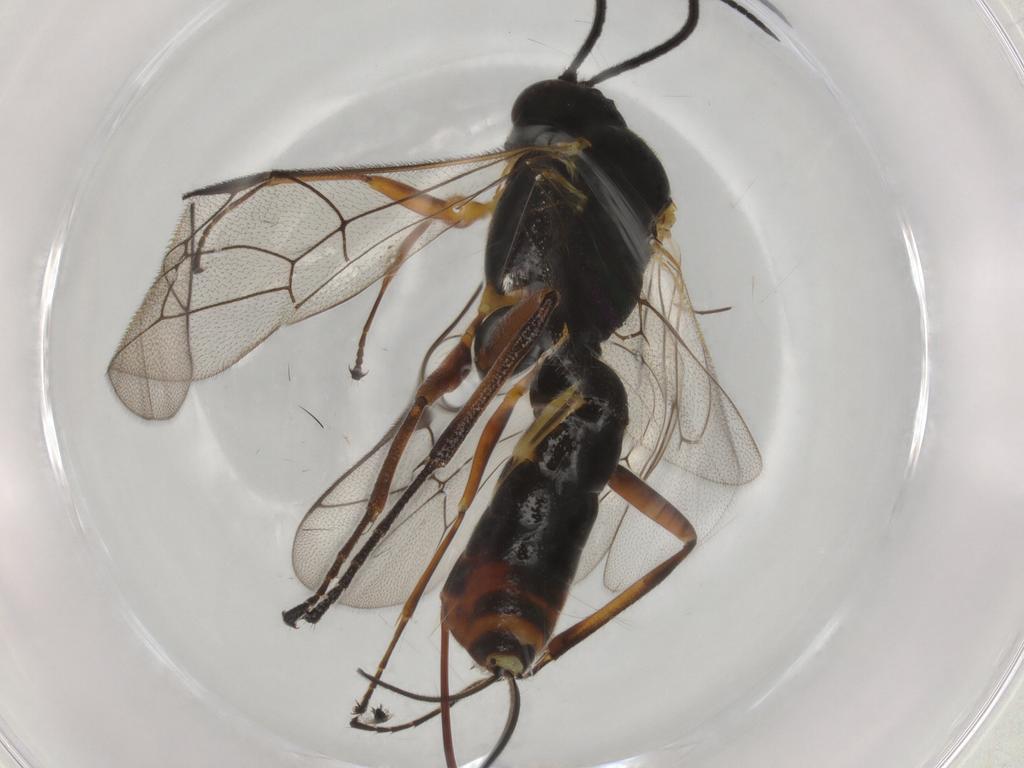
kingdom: Animalia
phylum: Arthropoda
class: Insecta
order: Hymenoptera
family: Ichneumonidae
